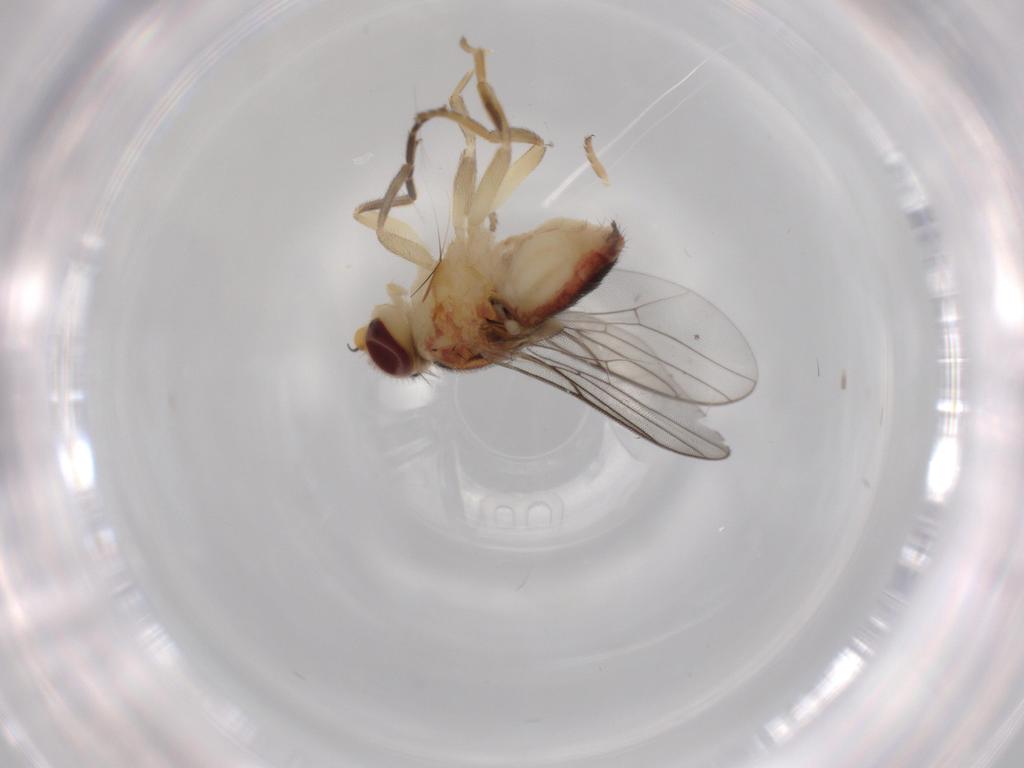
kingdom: Animalia
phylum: Arthropoda
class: Insecta
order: Diptera
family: Chloropidae
